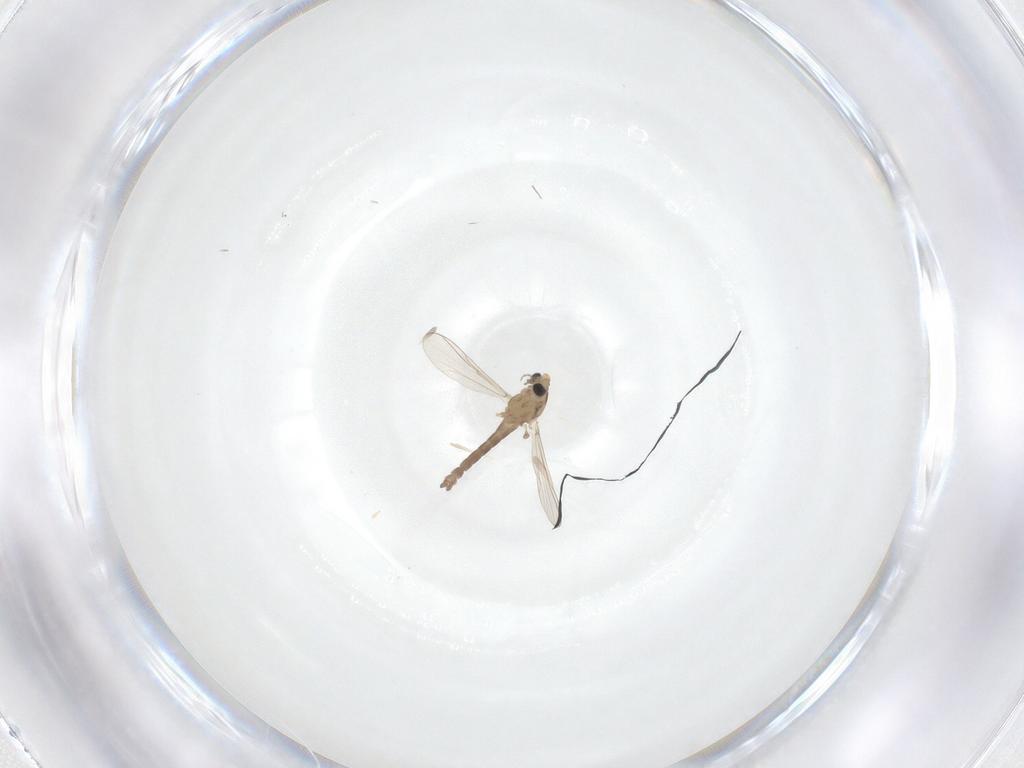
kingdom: Animalia
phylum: Arthropoda
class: Insecta
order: Diptera
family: Chironomidae
